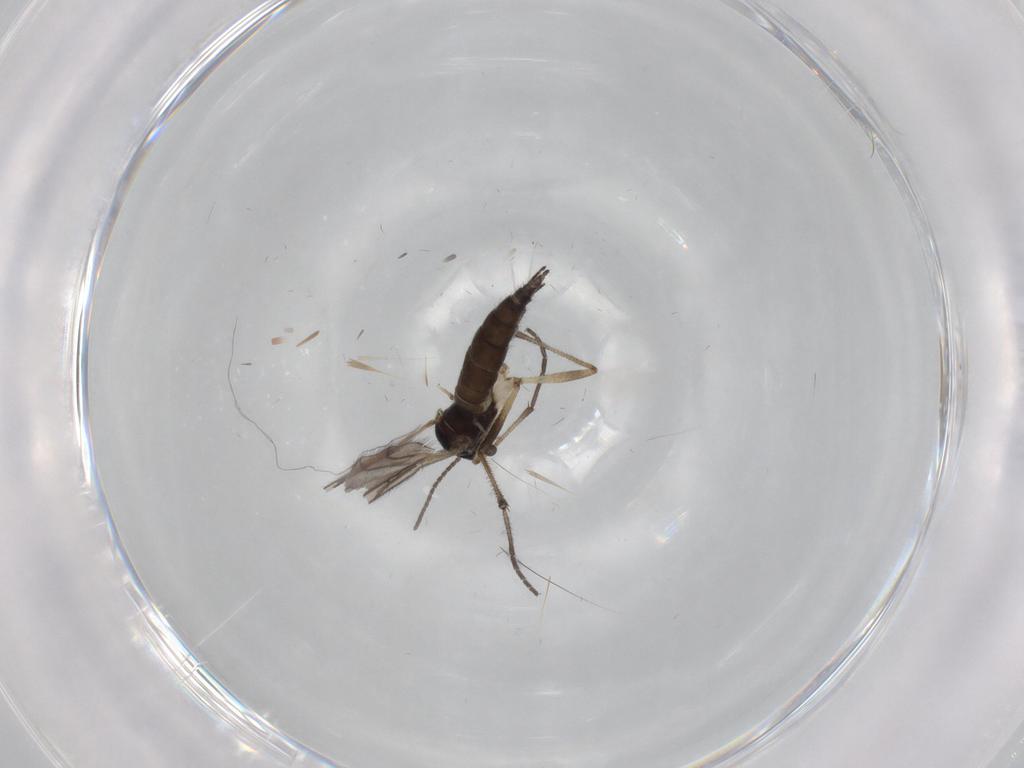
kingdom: Animalia
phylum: Arthropoda
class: Insecta
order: Diptera
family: Sciaridae
